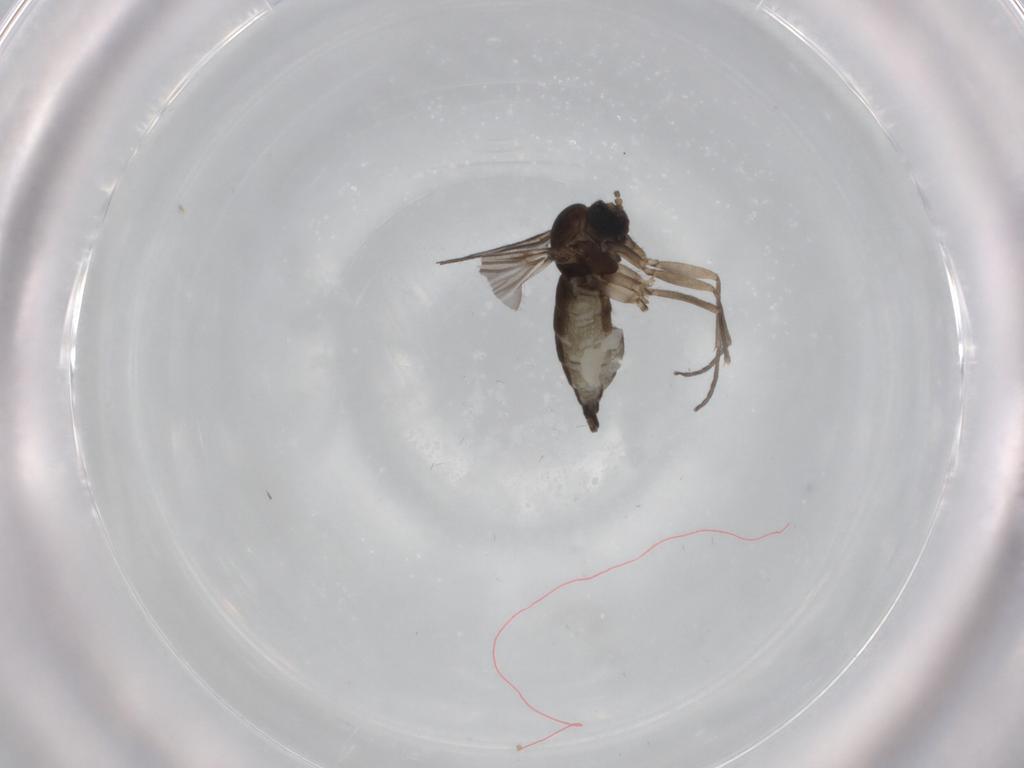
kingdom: Animalia
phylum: Arthropoda
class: Insecta
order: Diptera
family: Sciaridae
